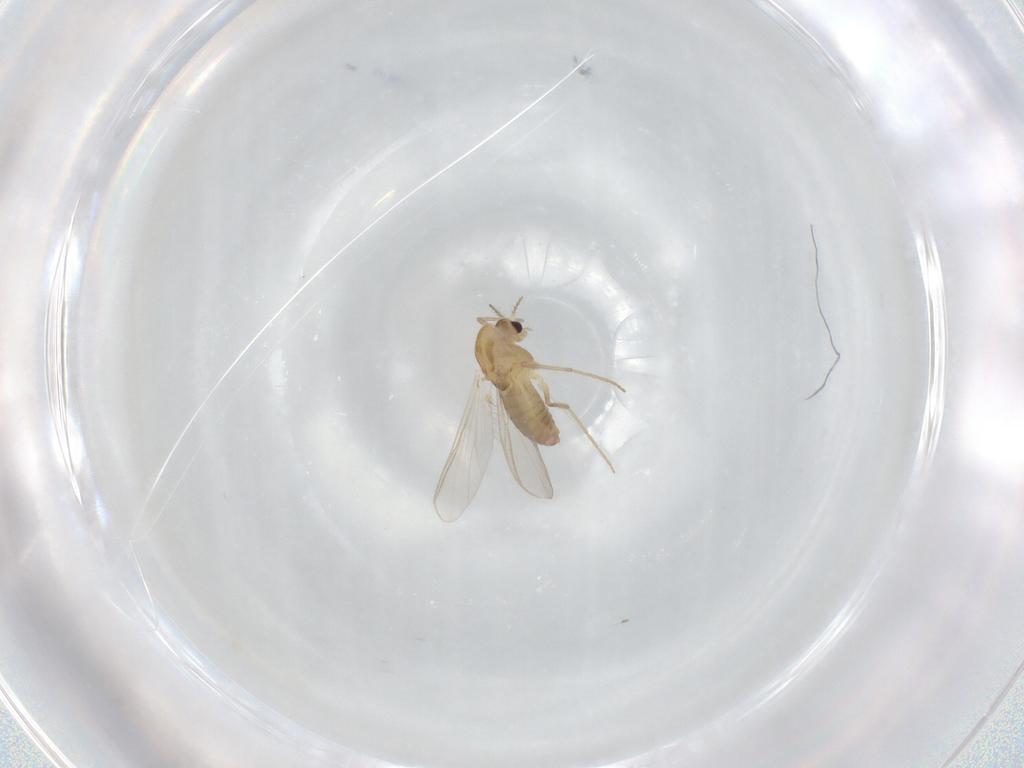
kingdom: Animalia
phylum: Arthropoda
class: Insecta
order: Diptera
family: Chironomidae
